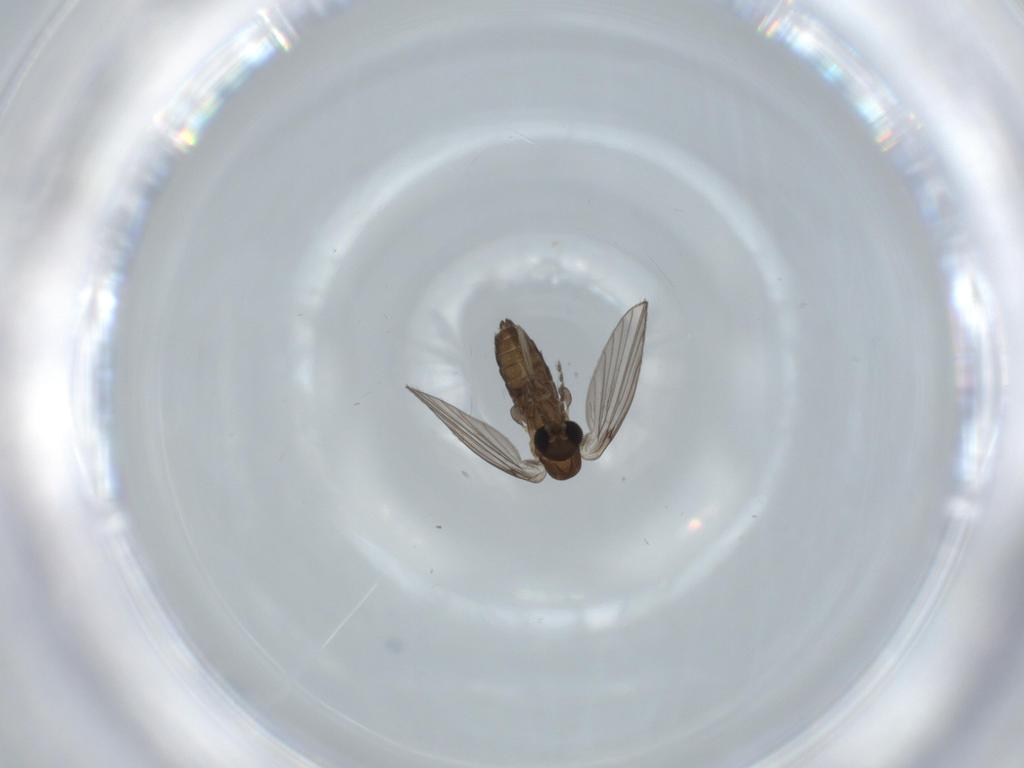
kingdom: Animalia
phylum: Arthropoda
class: Insecta
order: Diptera
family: Psychodidae
